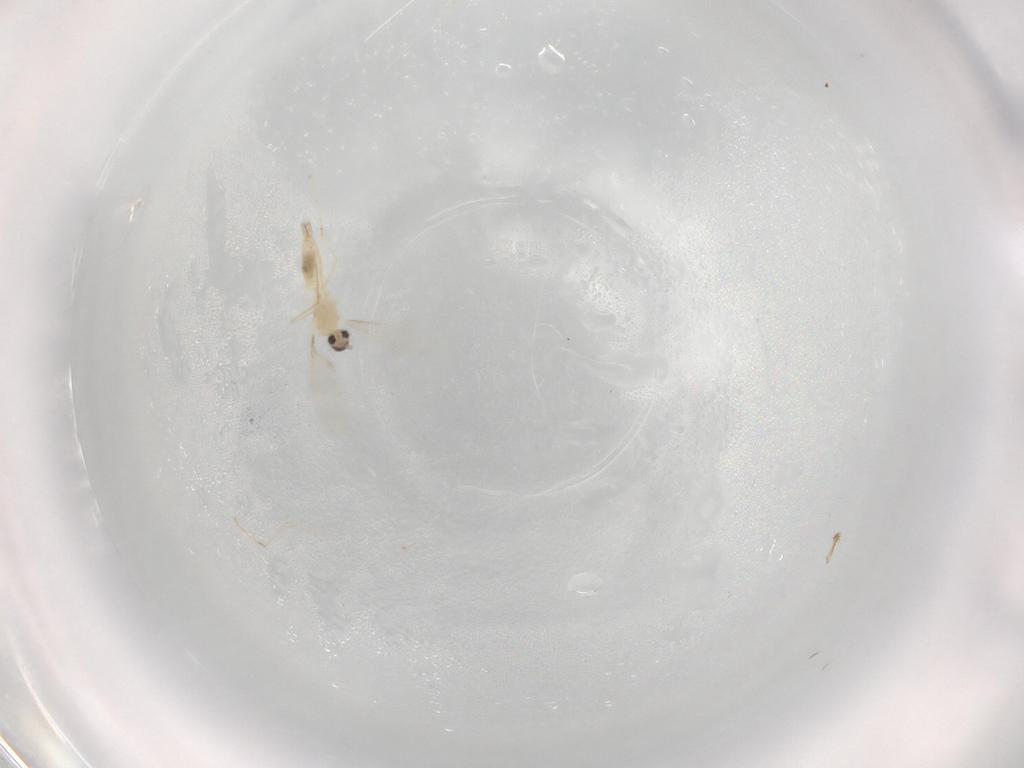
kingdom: Animalia
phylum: Arthropoda
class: Insecta
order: Diptera
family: Cecidomyiidae
